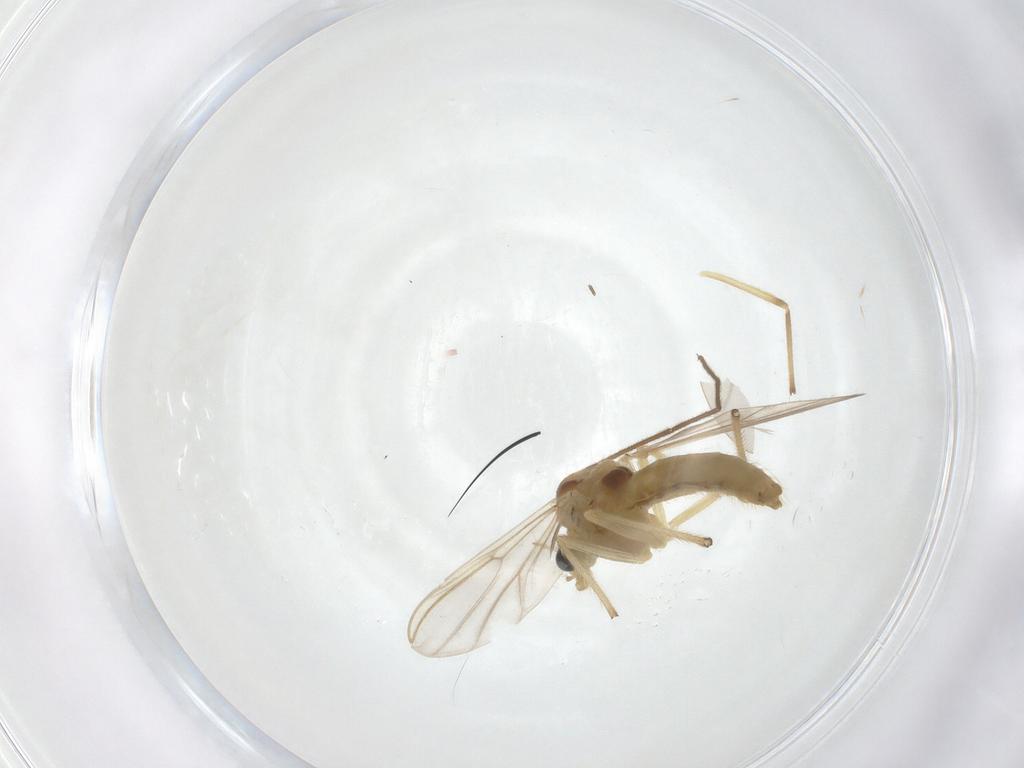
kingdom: Animalia
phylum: Arthropoda
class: Insecta
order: Diptera
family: Chironomidae
